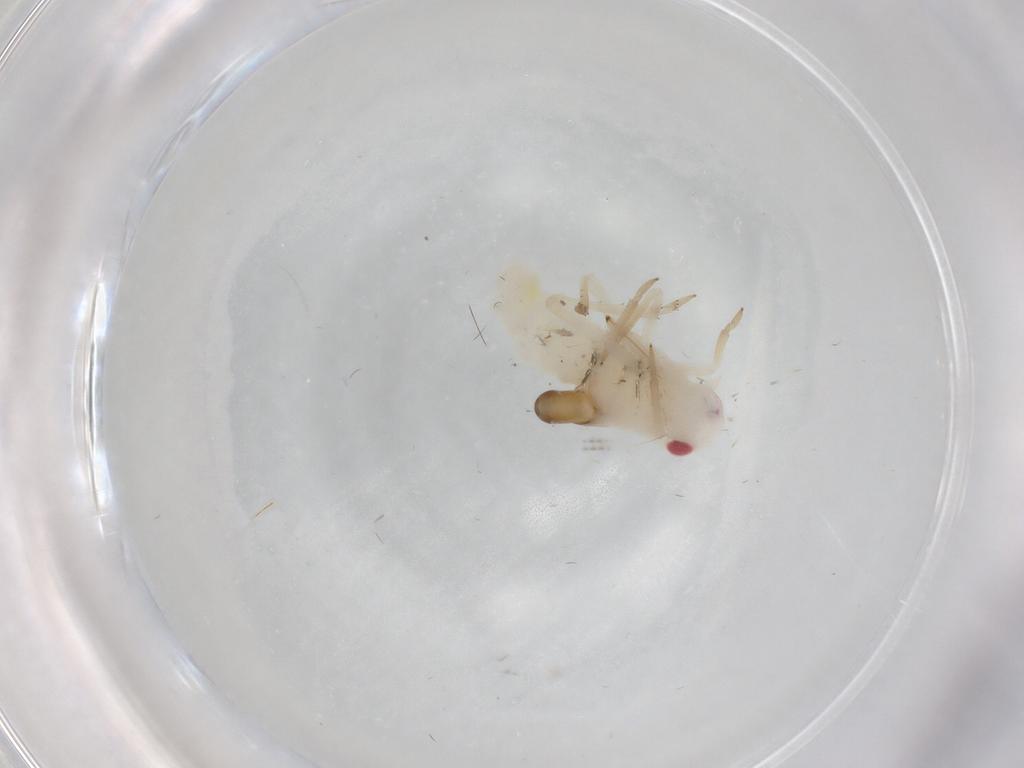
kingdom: Animalia
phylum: Arthropoda
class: Insecta
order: Hemiptera
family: Tropiduchidae
